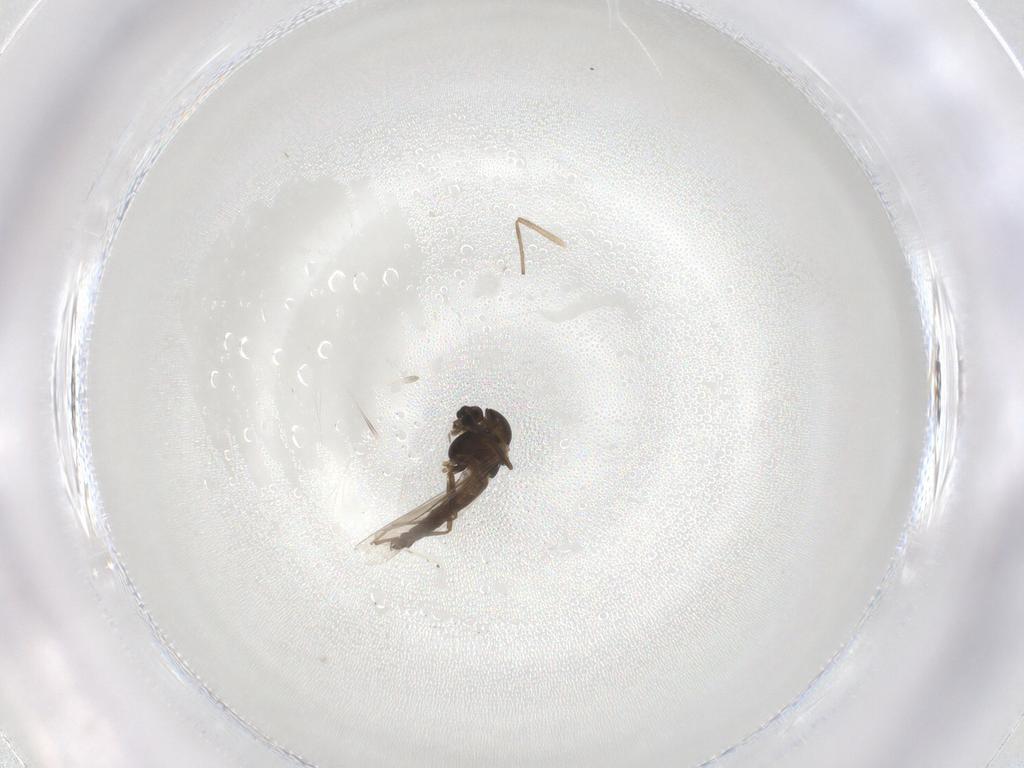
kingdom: Animalia
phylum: Arthropoda
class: Insecta
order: Diptera
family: Chironomidae
